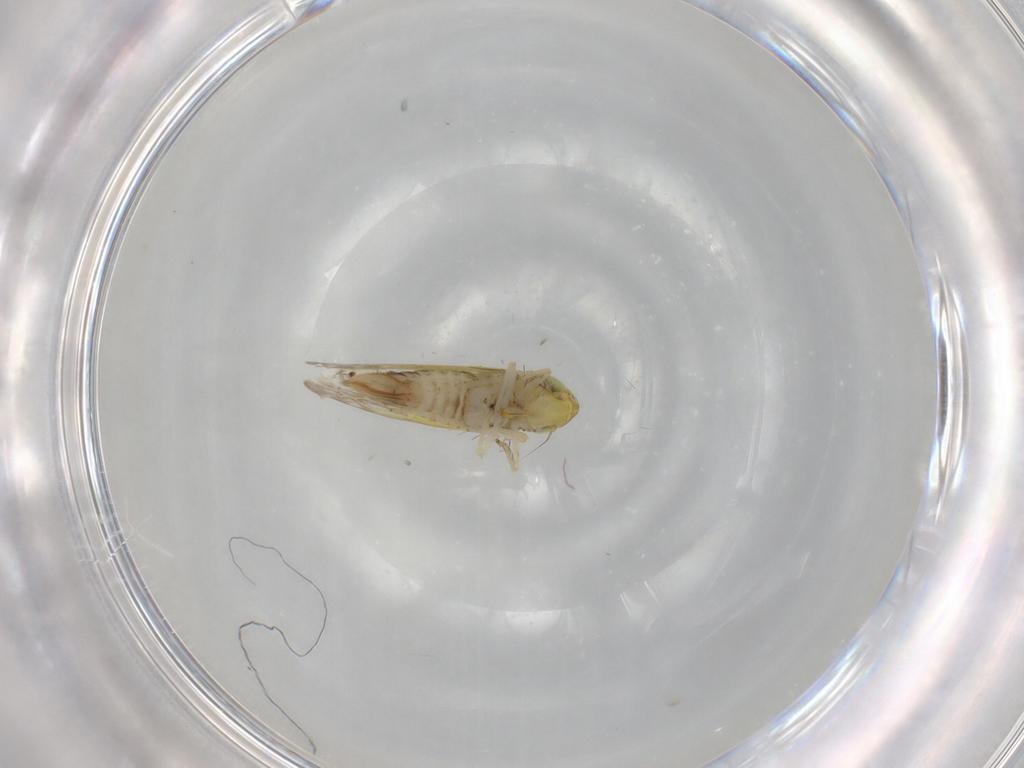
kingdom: Animalia
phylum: Arthropoda
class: Insecta
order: Hemiptera
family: Cicadellidae
